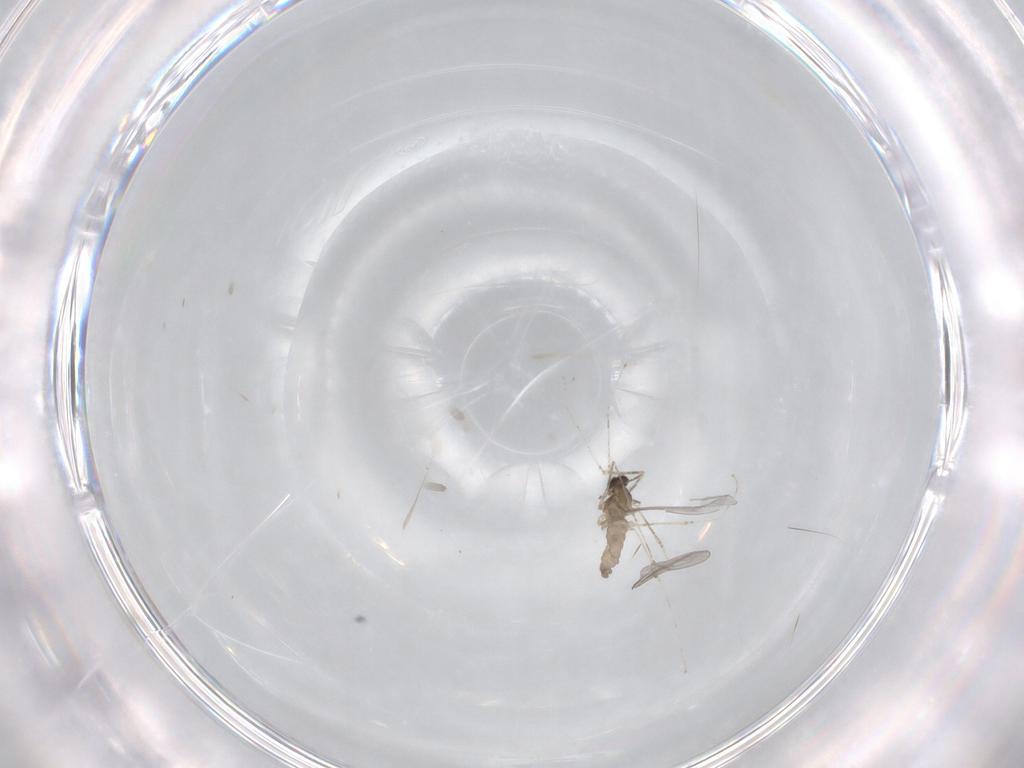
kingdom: Animalia
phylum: Arthropoda
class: Insecta
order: Diptera
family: Cecidomyiidae
